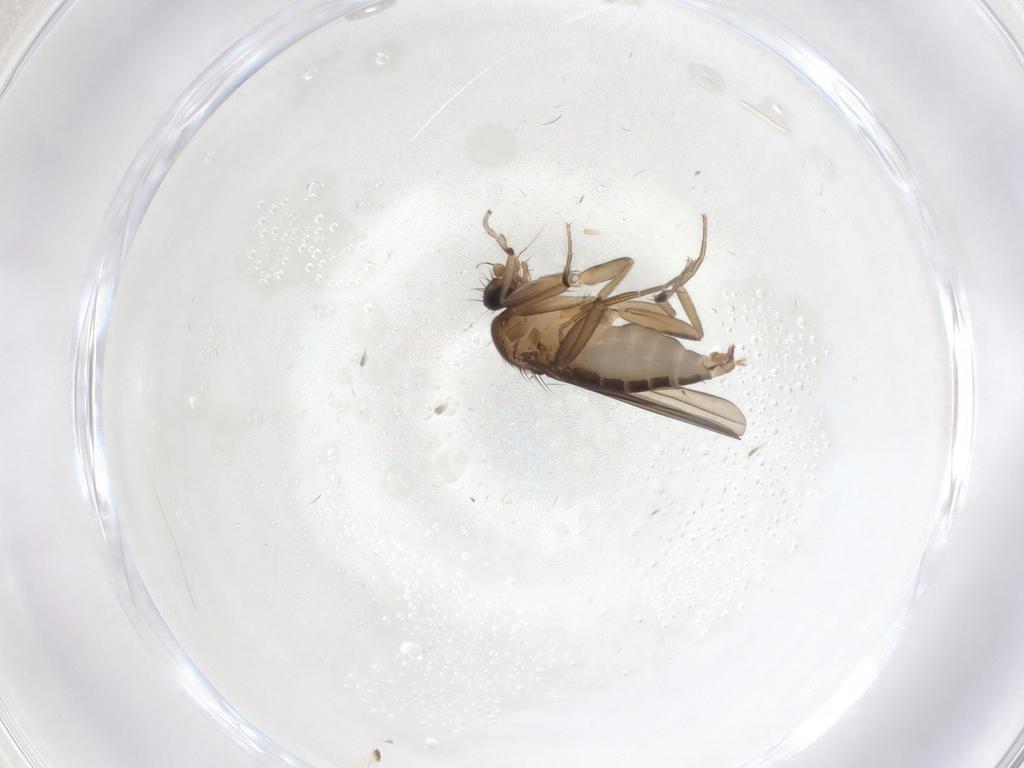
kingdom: Animalia
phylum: Arthropoda
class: Insecta
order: Diptera
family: Phoridae
